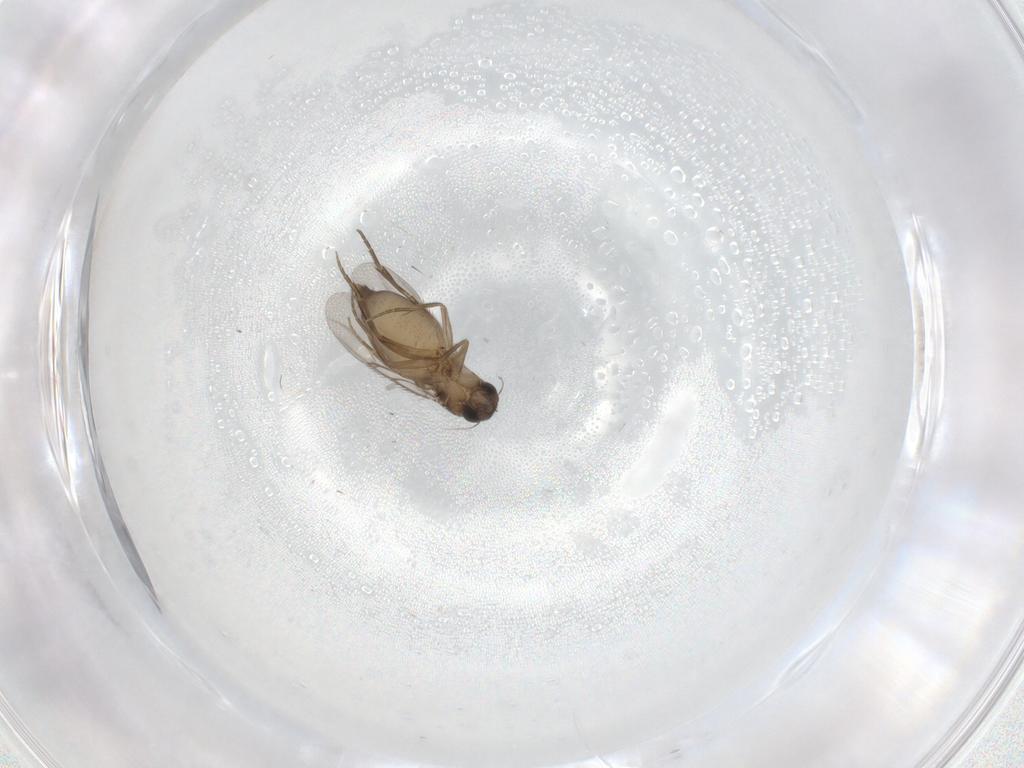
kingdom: Animalia
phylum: Arthropoda
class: Insecta
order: Diptera
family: Phoridae
